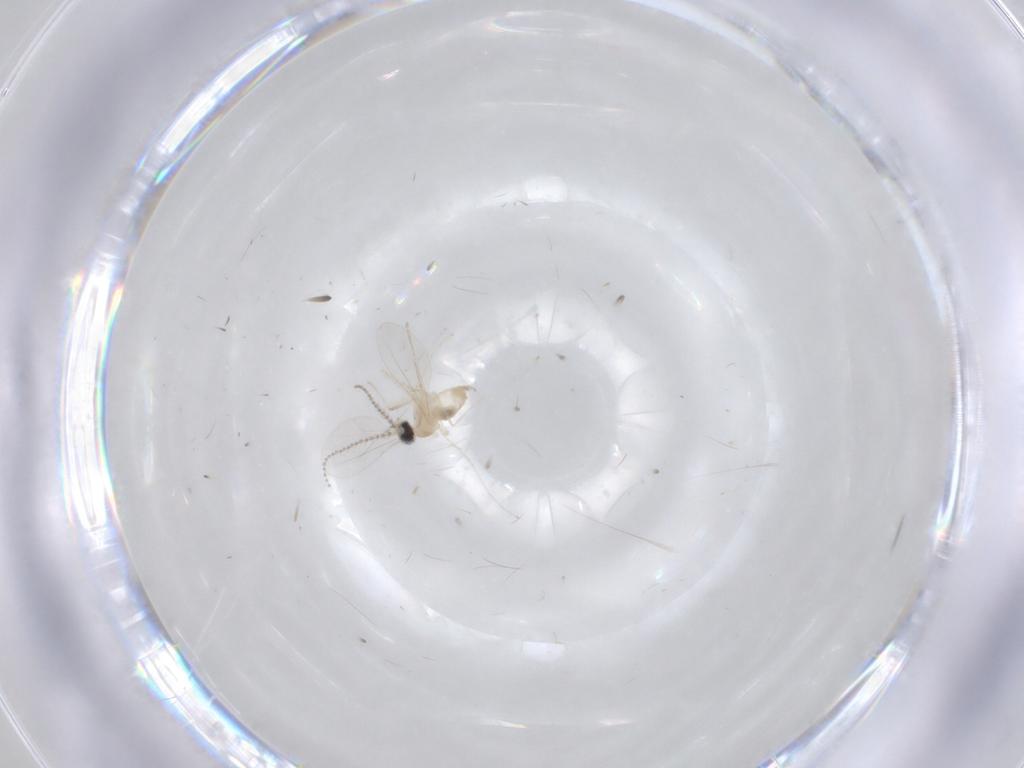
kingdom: Animalia
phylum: Arthropoda
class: Insecta
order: Diptera
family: Cecidomyiidae
